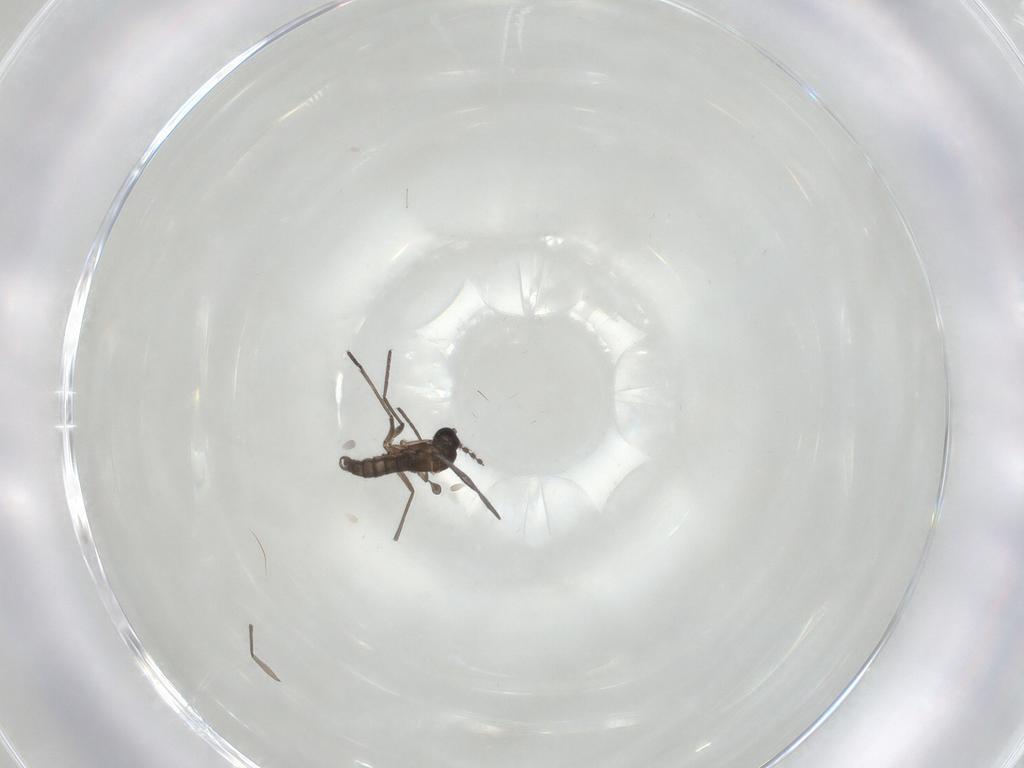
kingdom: Animalia
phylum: Arthropoda
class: Insecta
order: Diptera
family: Cecidomyiidae
